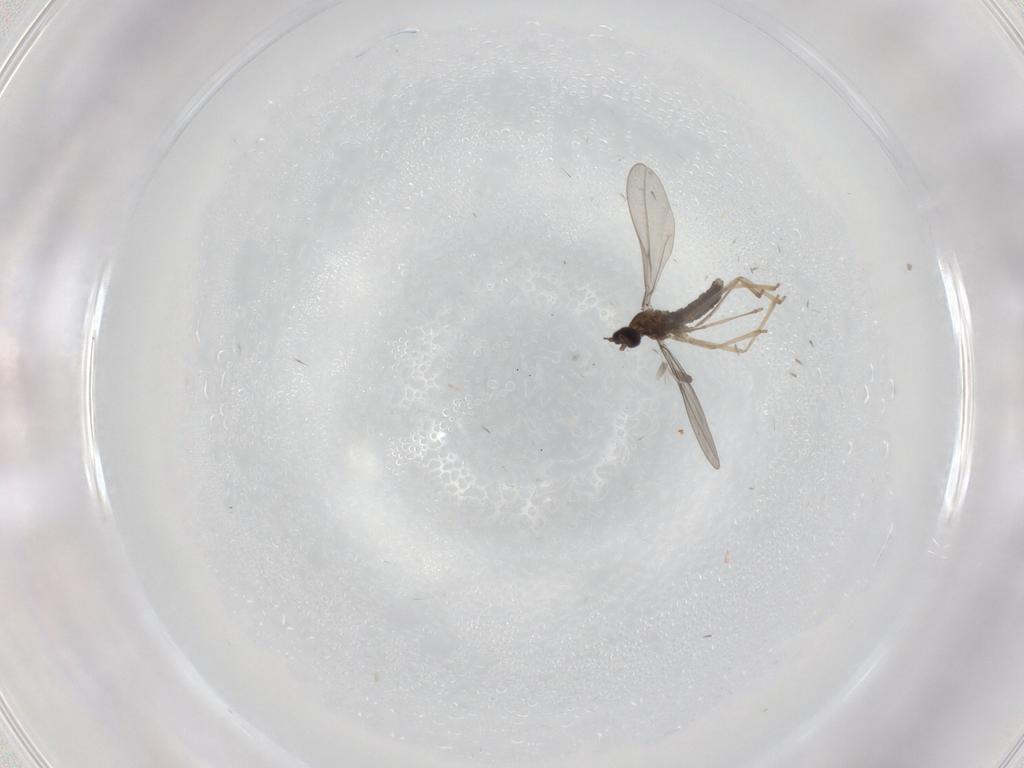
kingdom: Animalia
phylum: Arthropoda
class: Insecta
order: Diptera
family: Cecidomyiidae
